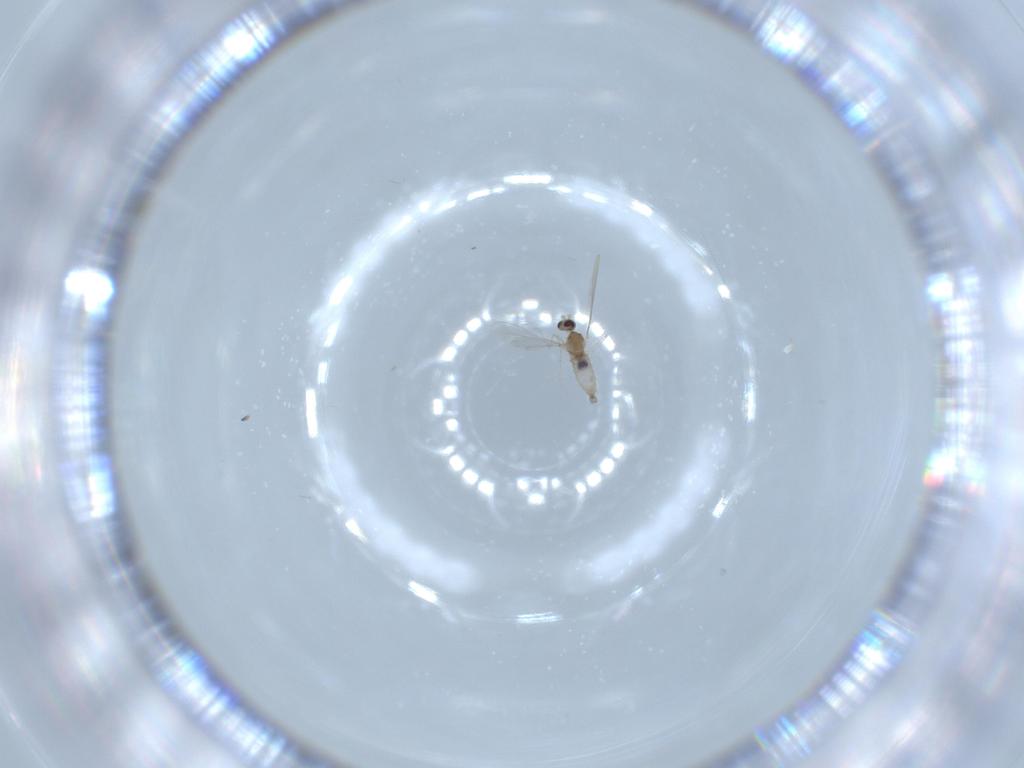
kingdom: Animalia
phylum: Arthropoda
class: Insecta
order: Diptera
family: Cecidomyiidae
